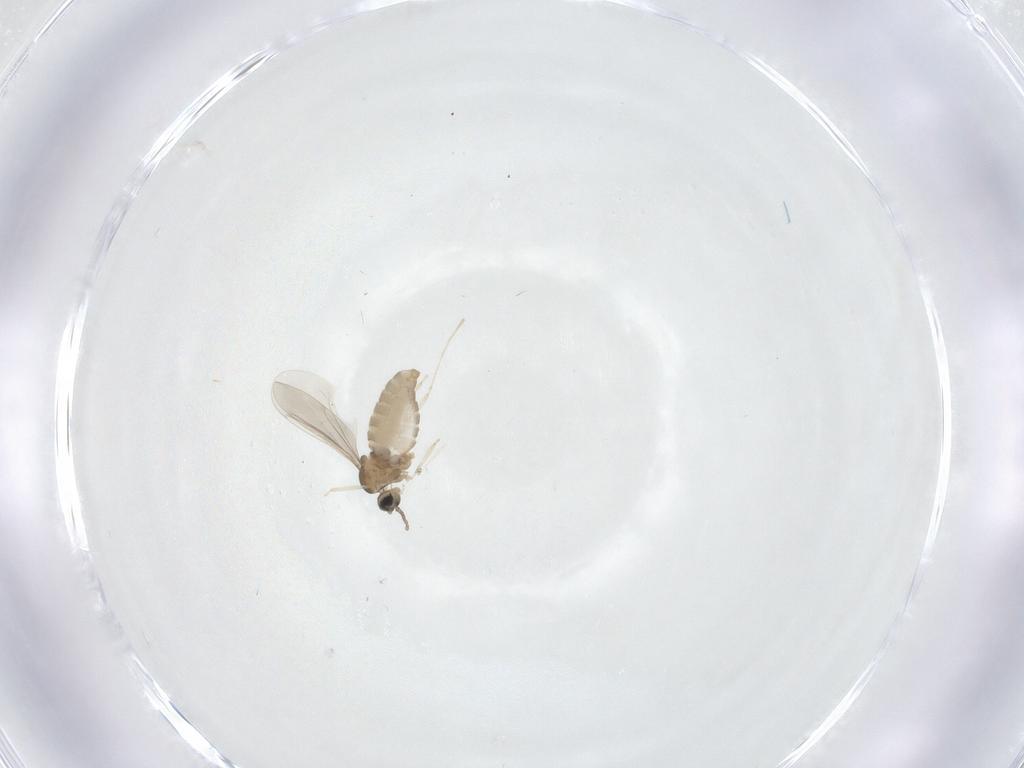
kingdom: Animalia
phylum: Arthropoda
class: Insecta
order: Diptera
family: Cecidomyiidae
